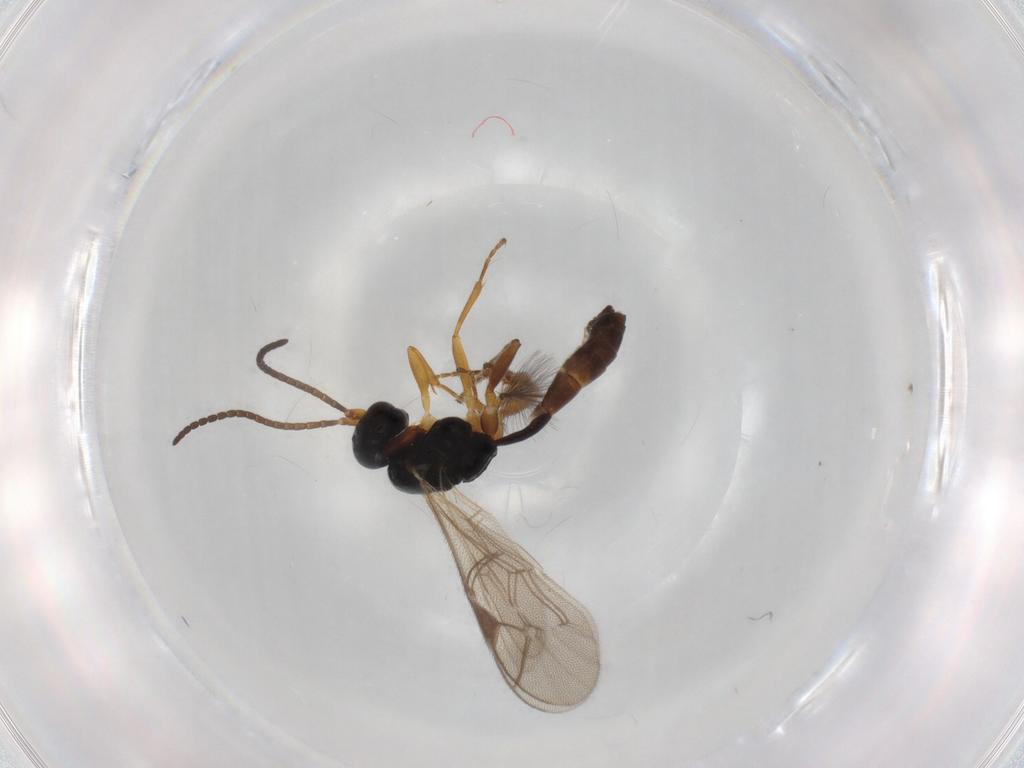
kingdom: Animalia
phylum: Arthropoda
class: Insecta
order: Hymenoptera
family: Ichneumonidae
